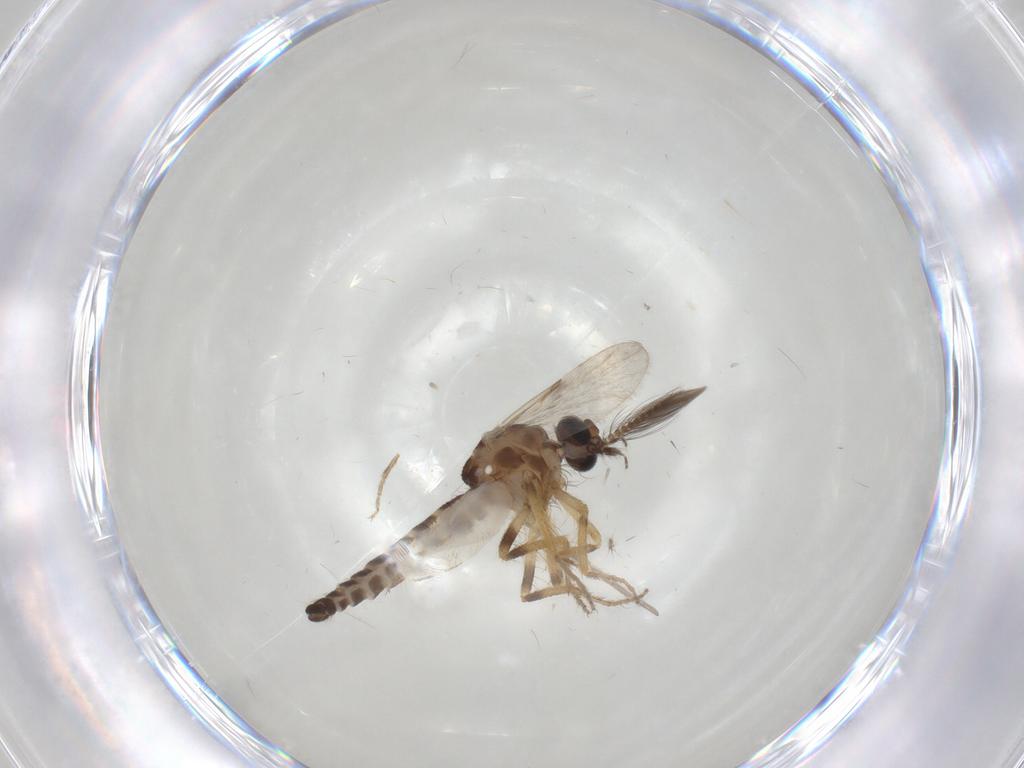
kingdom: Animalia
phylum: Arthropoda
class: Insecta
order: Diptera
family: Ceratopogonidae
